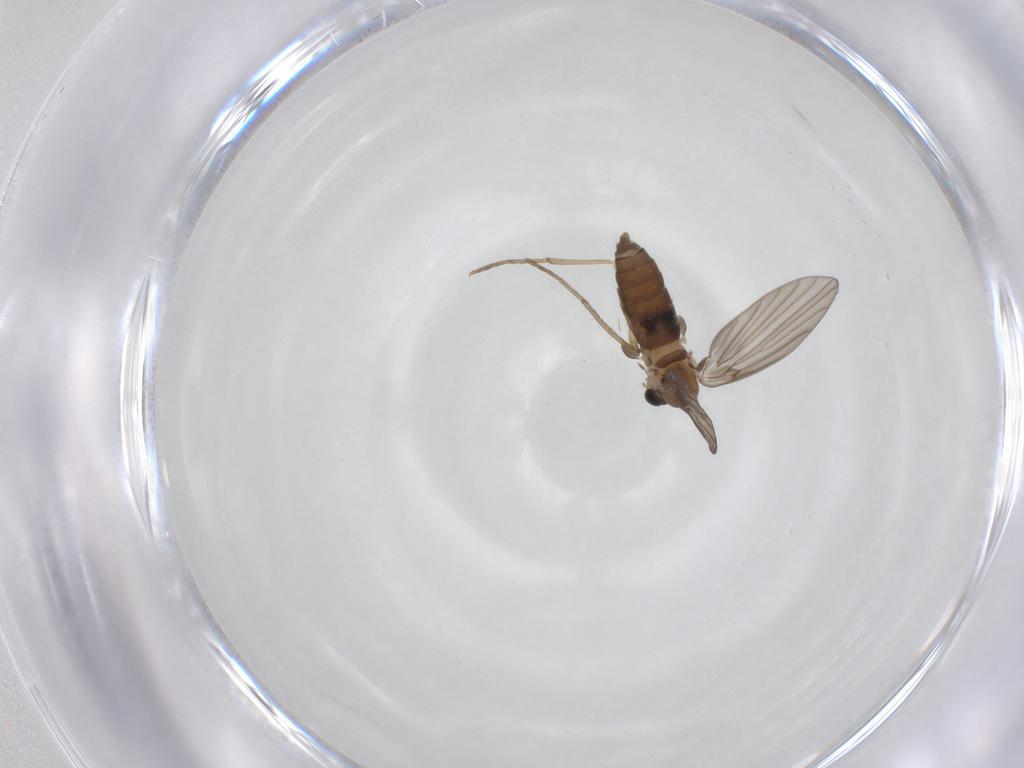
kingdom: Animalia
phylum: Arthropoda
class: Insecta
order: Diptera
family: Psychodidae
